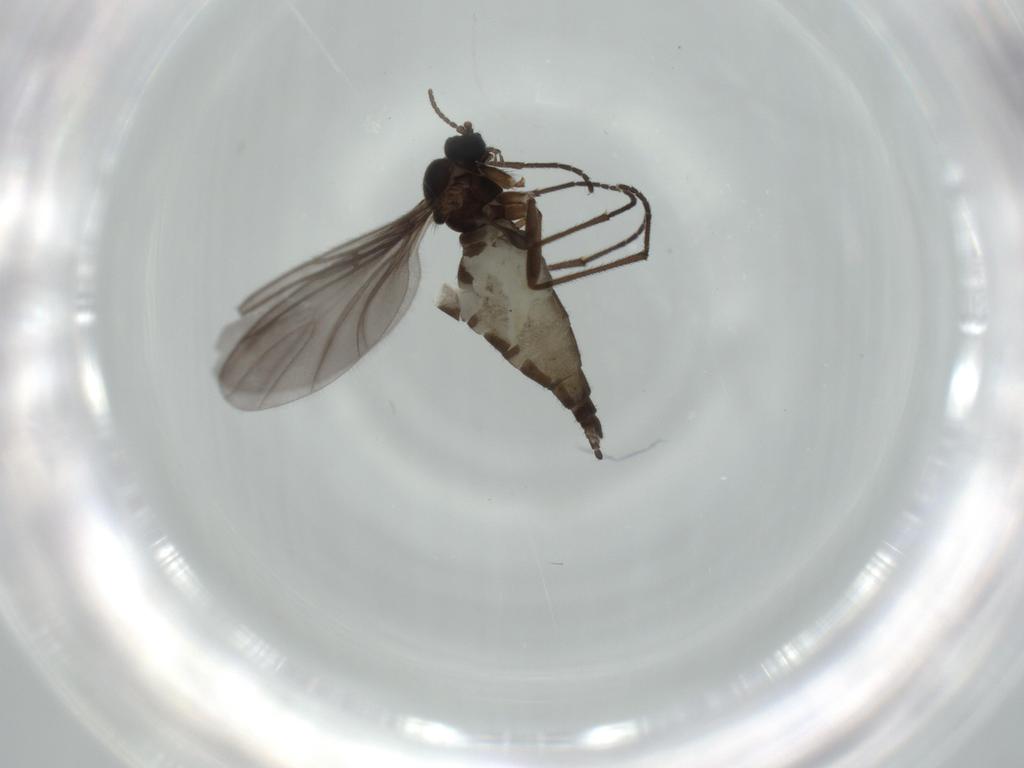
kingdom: Animalia
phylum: Arthropoda
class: Insecta
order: Diptera
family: Sciaridae
